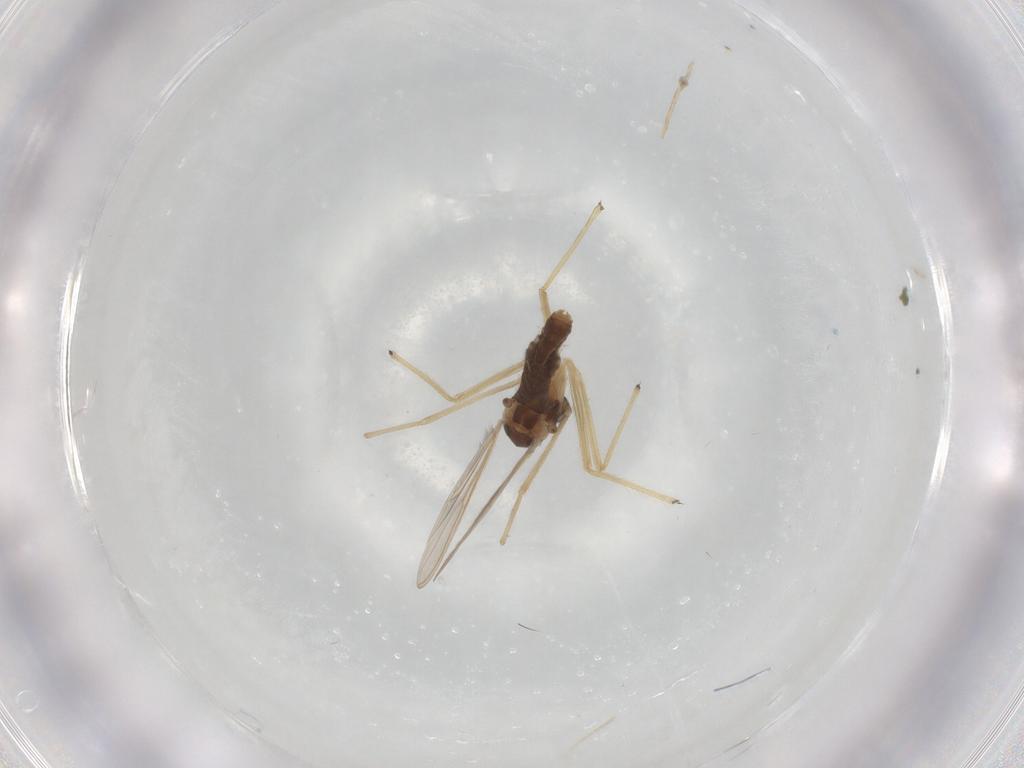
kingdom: Animalia
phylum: Arthropoda
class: Insecta
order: Diptera
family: Chironomidae
